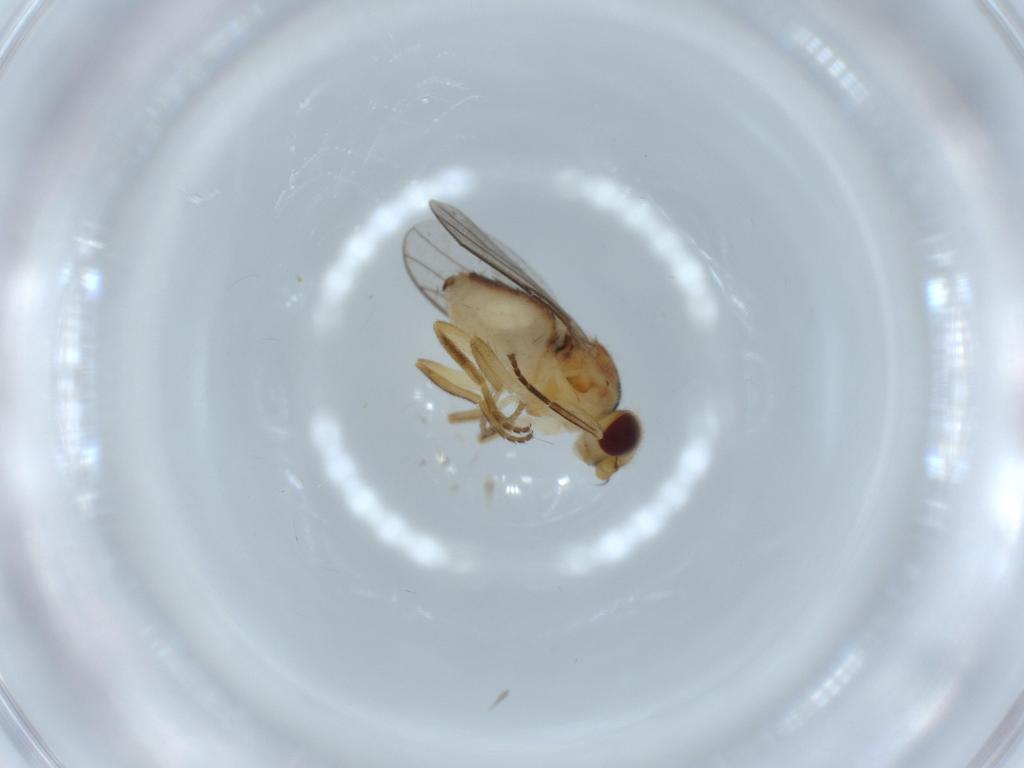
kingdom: Animalia
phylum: Arthropoda
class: Insecta
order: Diptera
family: Chloropidae
